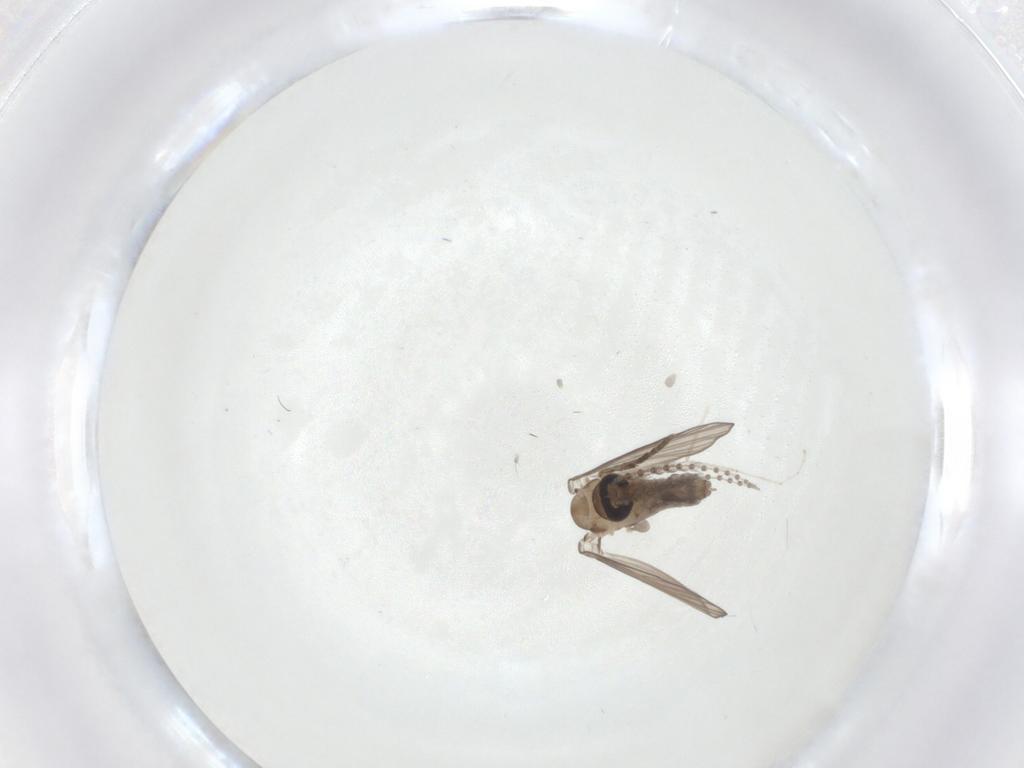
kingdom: Animalia
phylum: Arthropoda
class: Insecta
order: Diptera
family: Psychodidae
